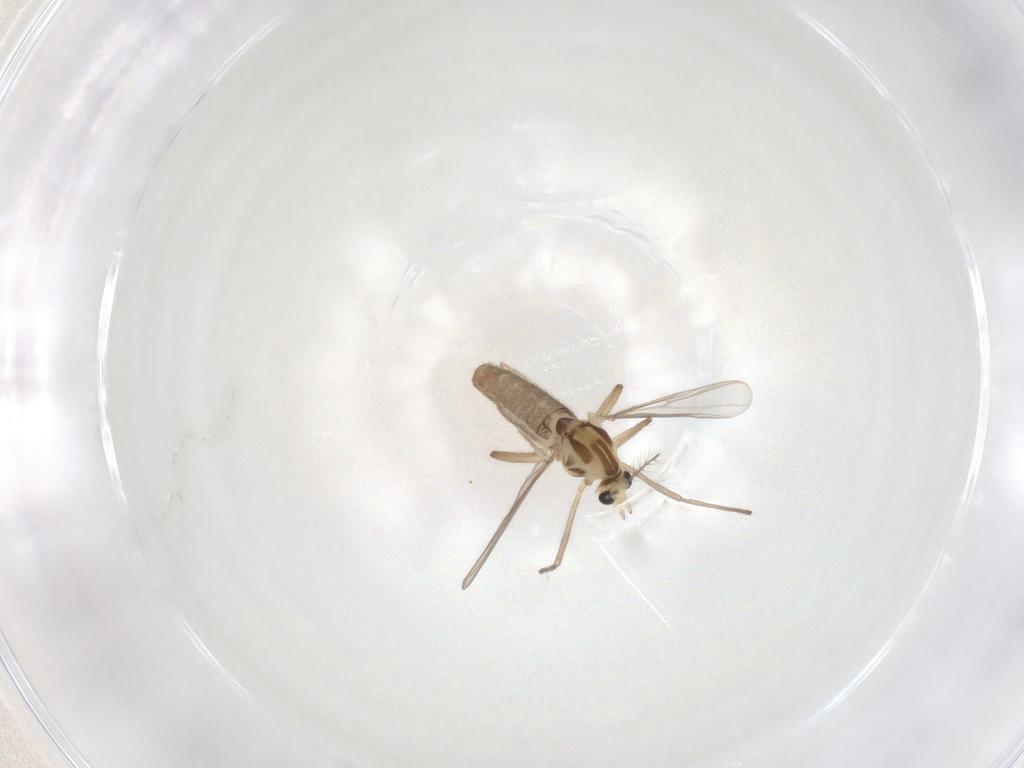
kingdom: Animalia
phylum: Arthropoda
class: Insecta
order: Diptera
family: Chironomidae
